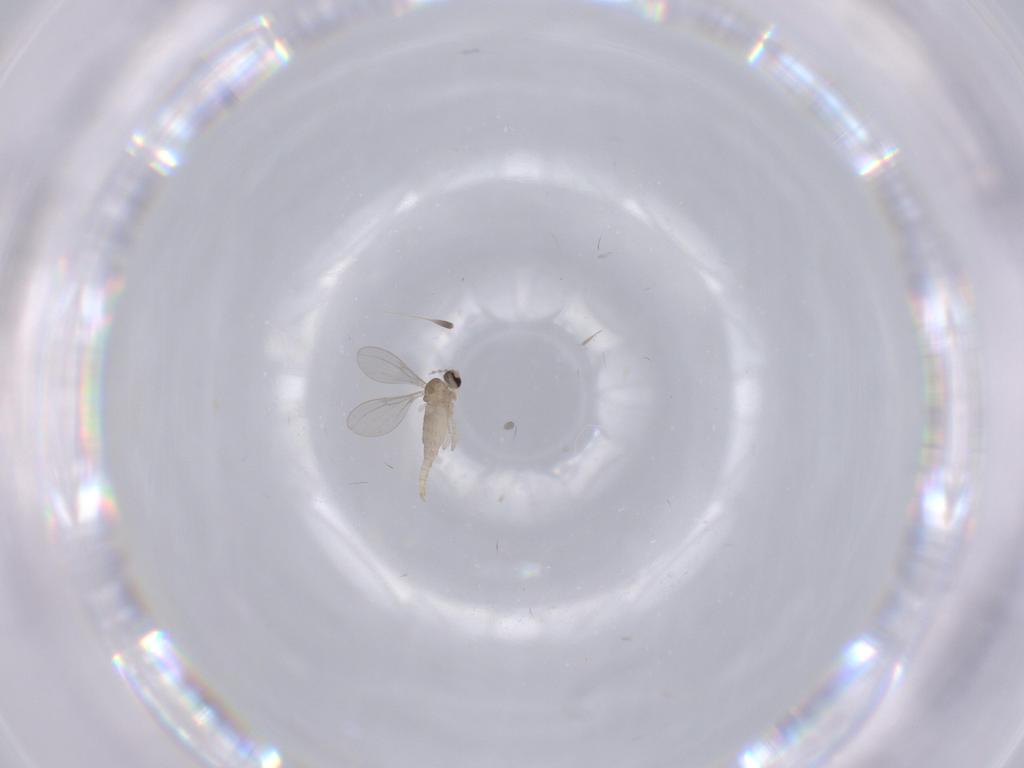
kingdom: Animalia
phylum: Arthropoda
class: Insecta
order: Diptera
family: Cecidomyiidae
